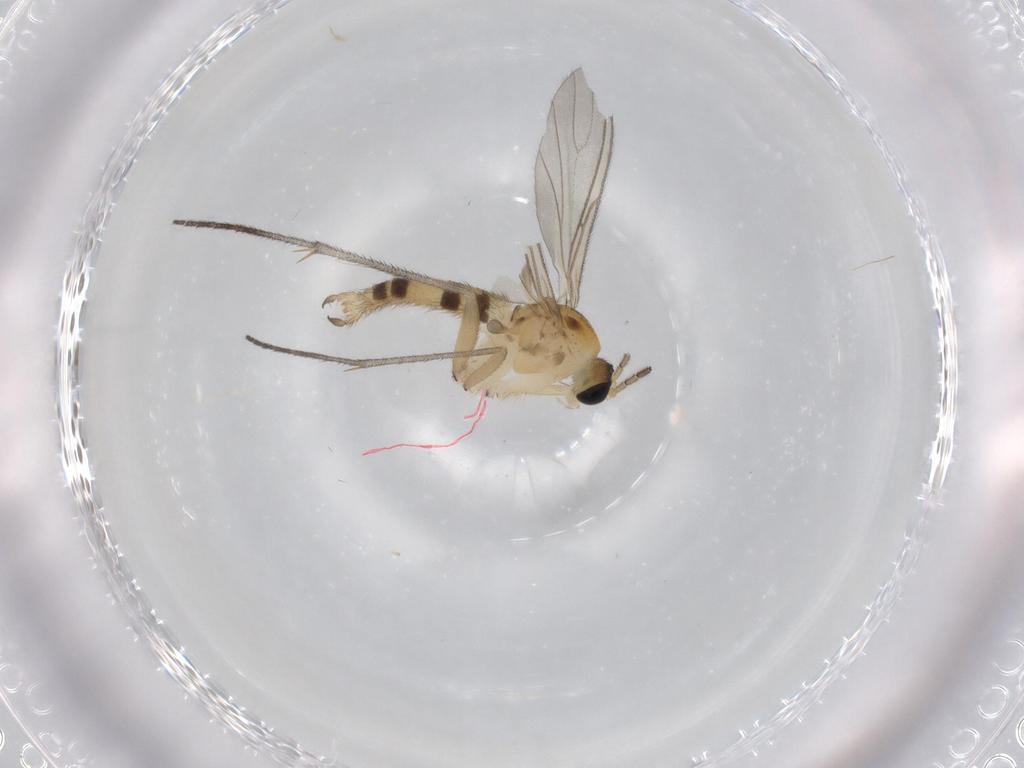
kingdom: Animalia
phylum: Arthropoda
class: Insecta
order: Diptera
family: Sciaridae
